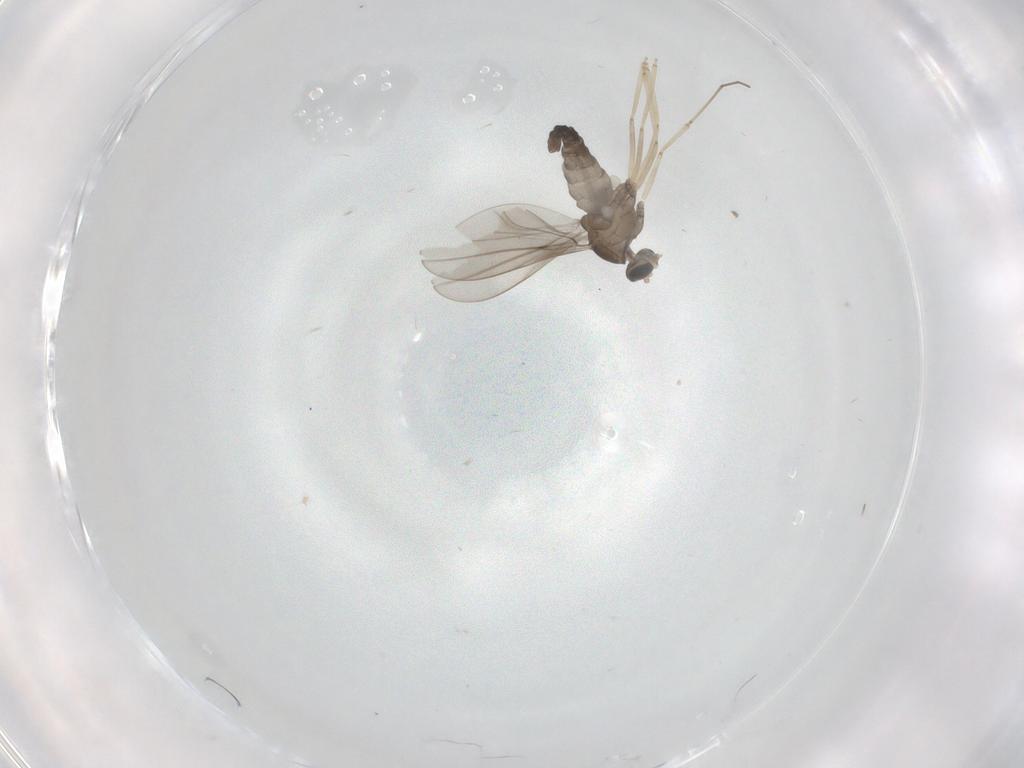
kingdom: Animalia
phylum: Arthropoda
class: Insecta
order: Diptera
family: Cecidomyiidae
